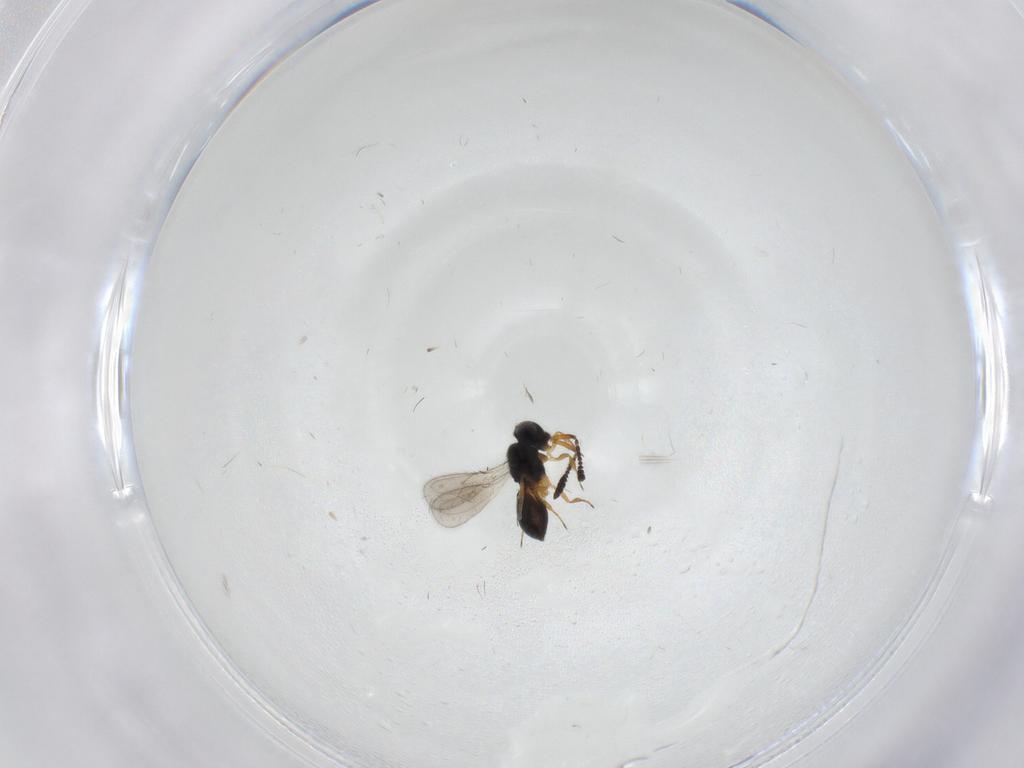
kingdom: Animalia
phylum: Arthropoda
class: Insecta
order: Hymenoptera
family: Scelionidae
